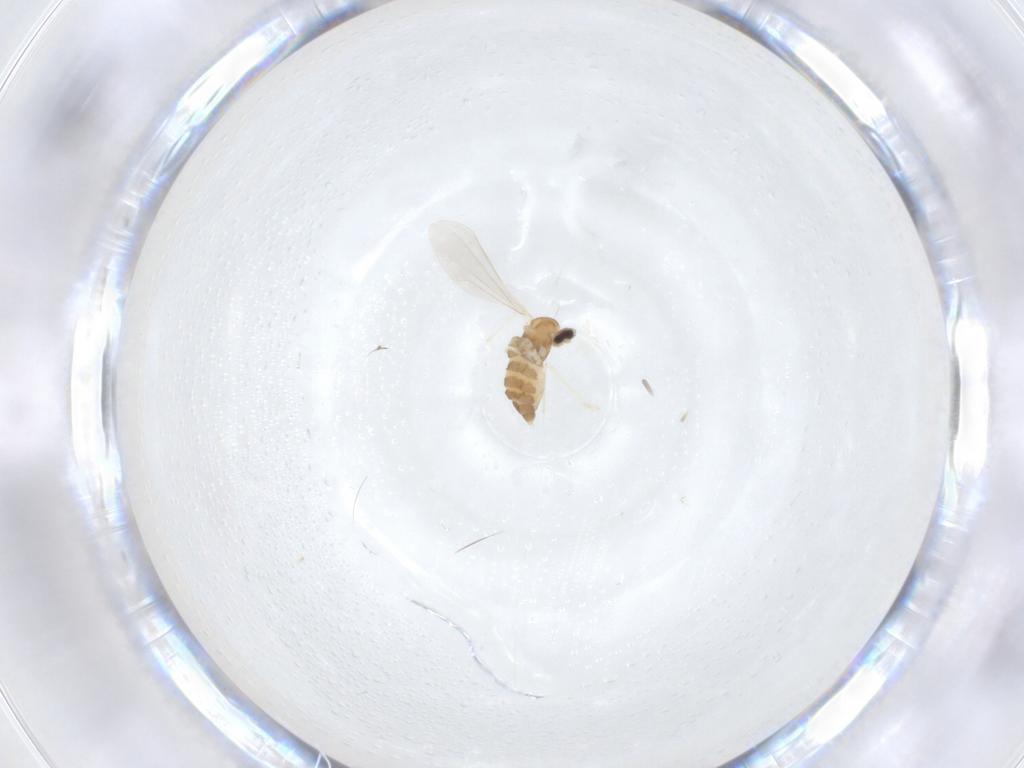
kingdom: Animalia
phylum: Arthropoda
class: Insecta
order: Diptera
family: Cecidomyiidae
